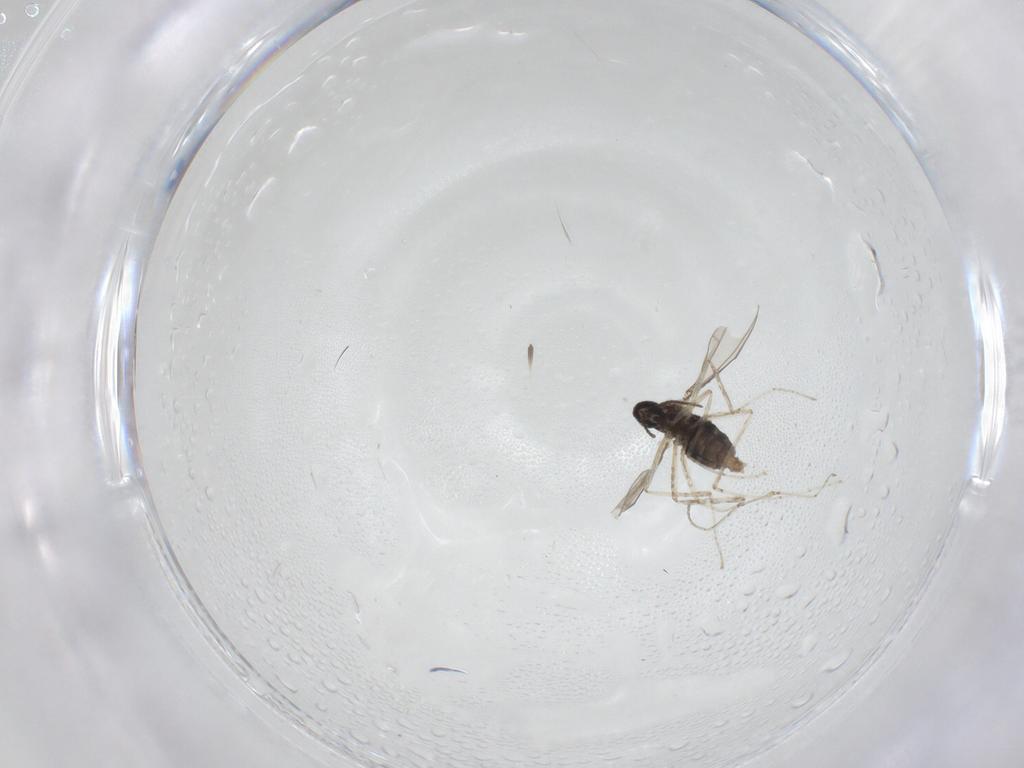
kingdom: Animalia
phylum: Arthropoda
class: Insecta
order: Diptera
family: Cecidomyiidae
